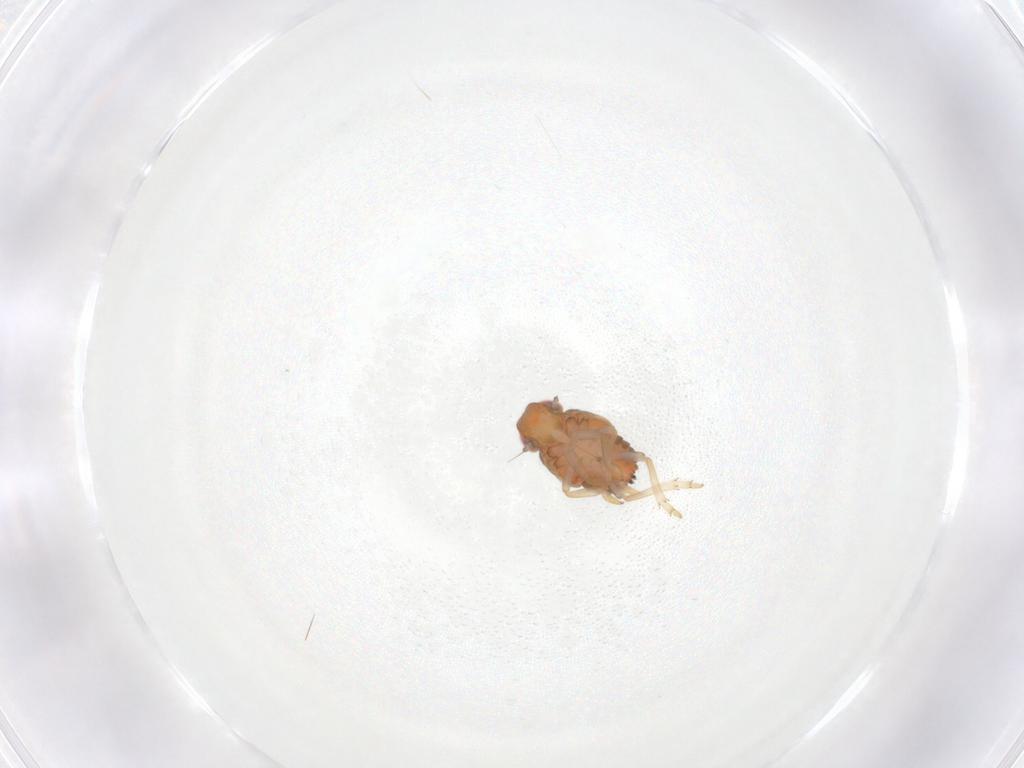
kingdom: Animalia
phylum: Arthropoda
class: Insecta
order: Hemiptera
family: Issidae
